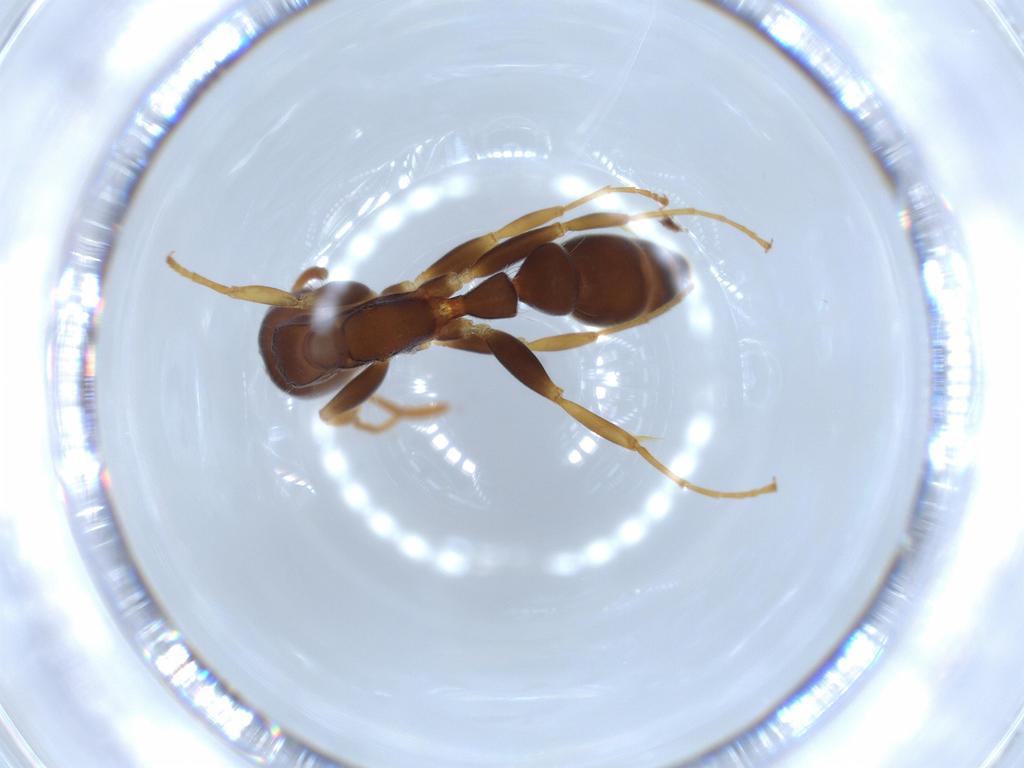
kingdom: Animalia
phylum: Arthropoda
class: Insecta
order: Hymenoptera
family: Formicidae
